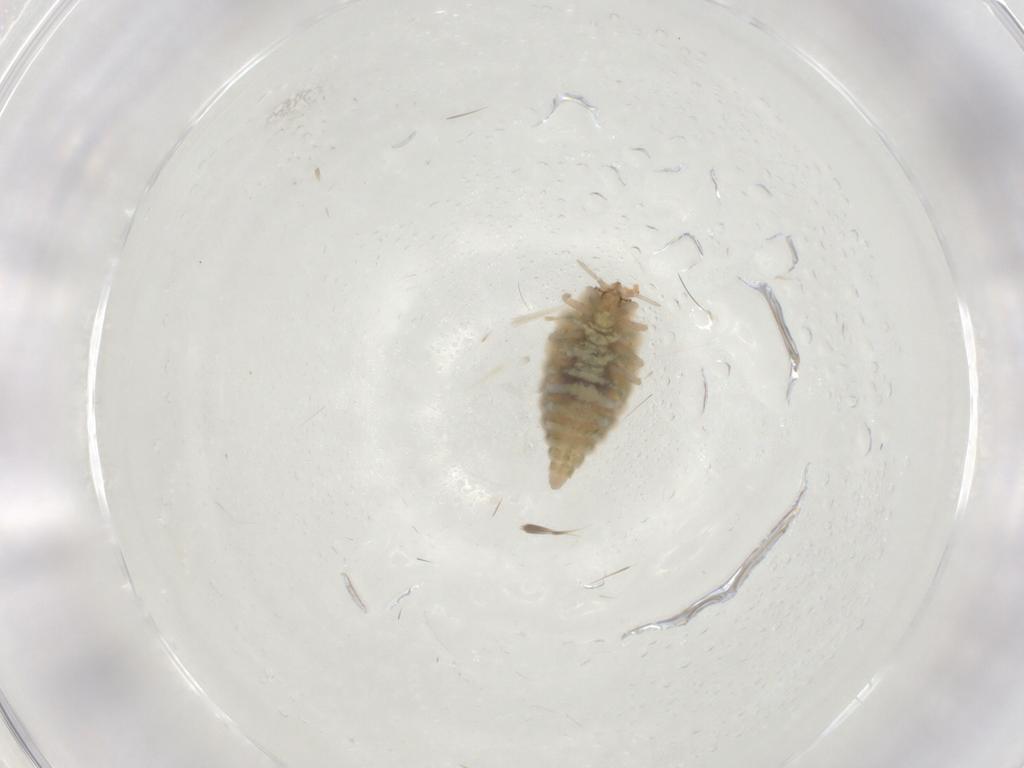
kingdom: Animalia
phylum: Arthropoda
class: Insecta
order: Neuroptera
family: Coniopterygidae
